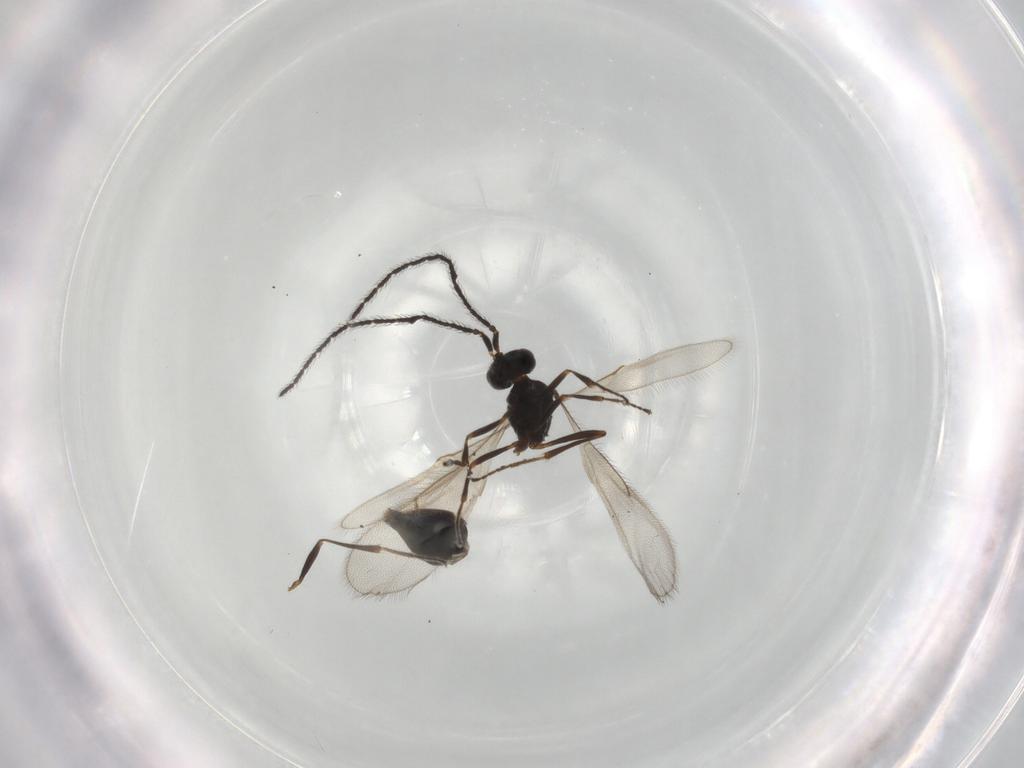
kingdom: Animalia
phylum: Arthropoda
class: Insecta
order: Hymenoptera
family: Scelionidae
